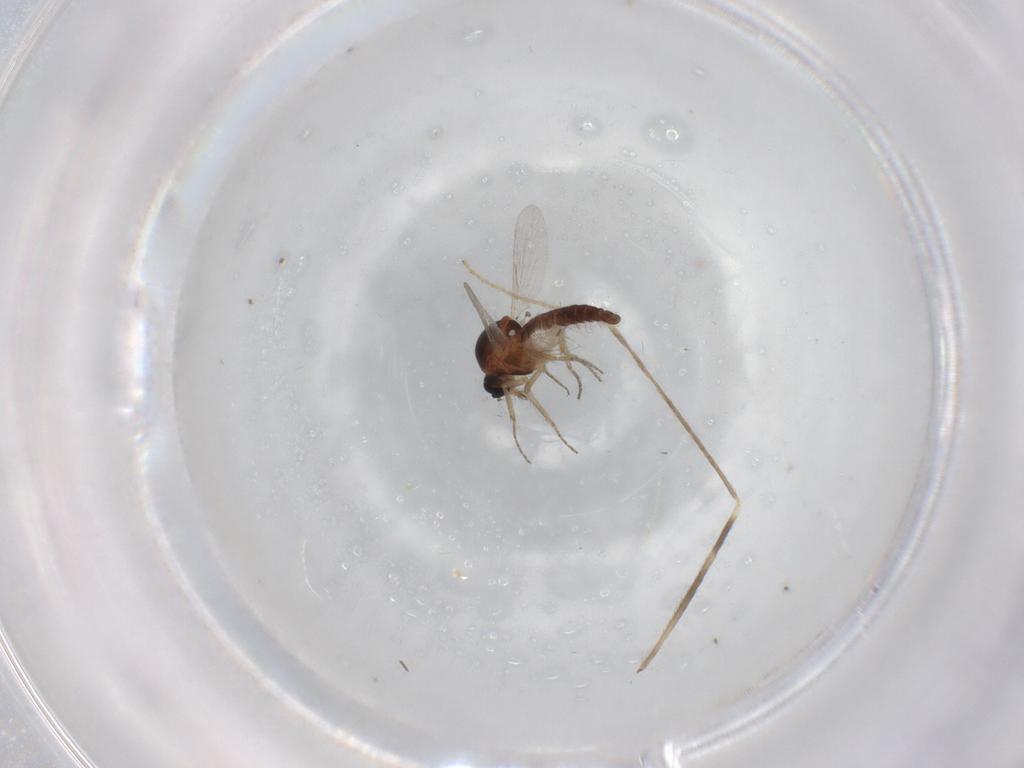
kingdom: Animalia
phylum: Arthropoda
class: Insecta
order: Diptera
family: Ceratopogonidae
